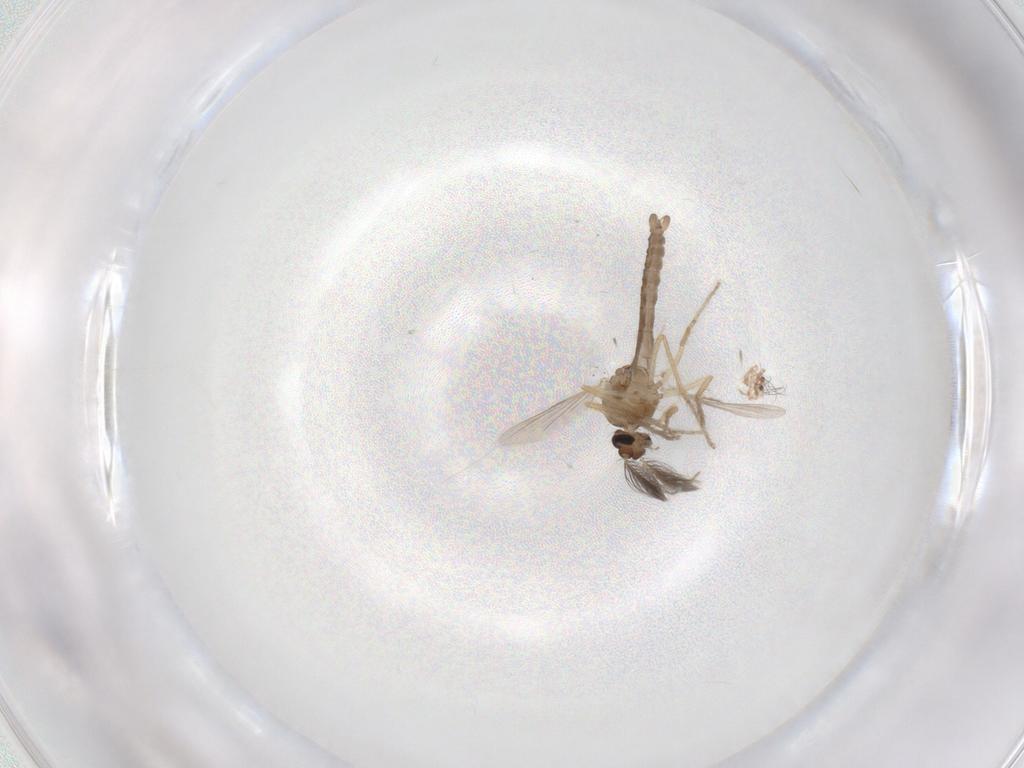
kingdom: Animalia
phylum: Arthropoda
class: Insecta
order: Diptera
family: Ceratopogonidae
